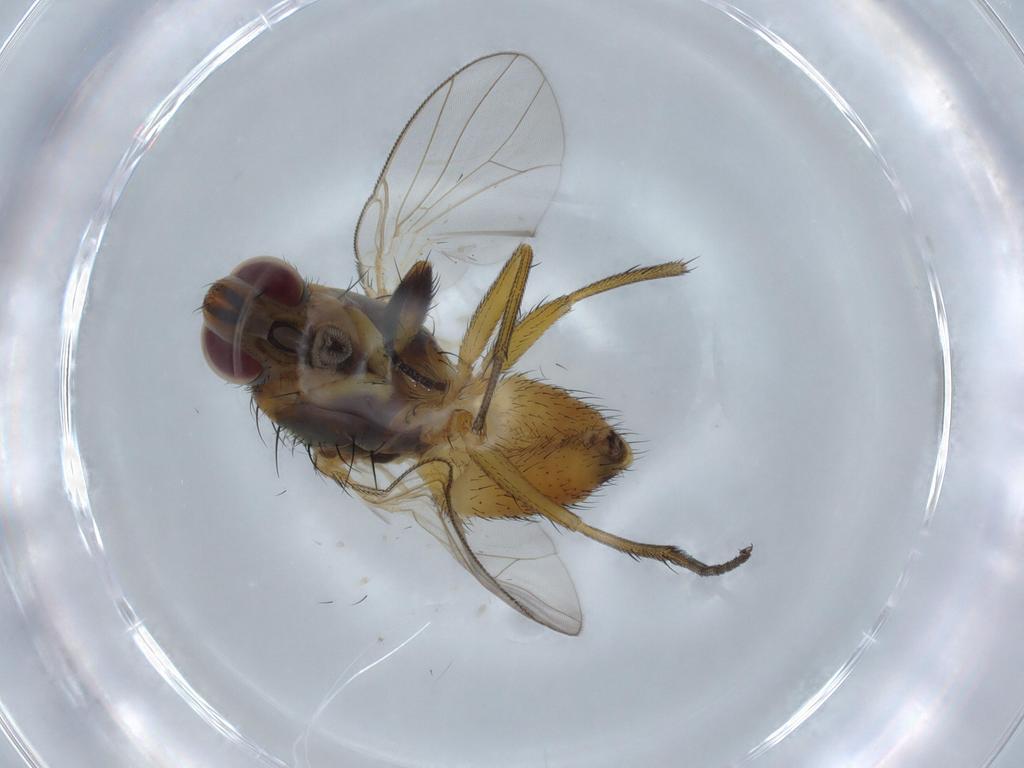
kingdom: Animalia
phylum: Arthropoda
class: Insecta
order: Diptera
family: Muscidae
